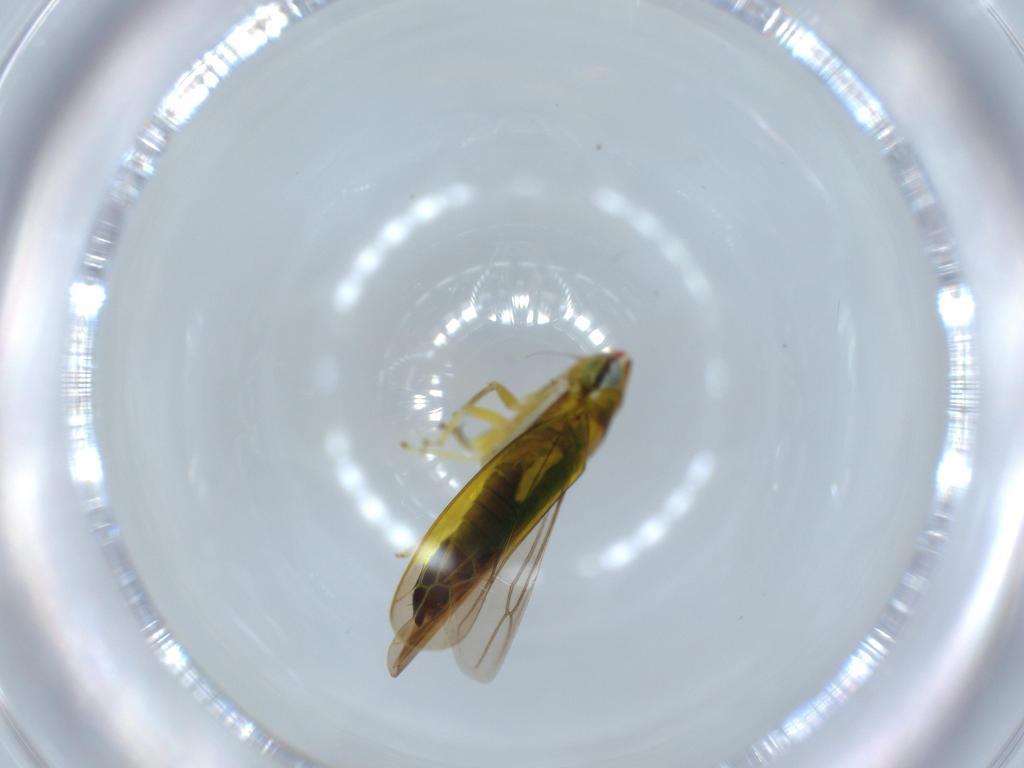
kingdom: Animalia
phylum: Arthropoda
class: Insecta
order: Hemiptera
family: Cicadellidae
